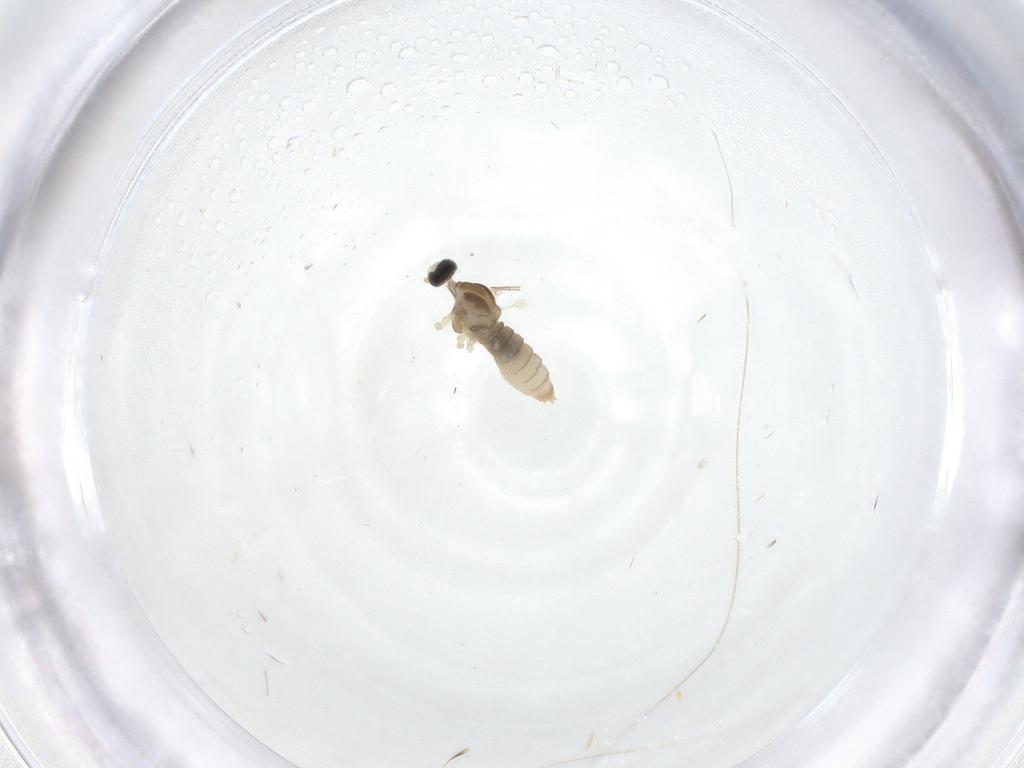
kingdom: Animalia
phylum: Arthropoda
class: Insecta
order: Diptera
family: Cecidomyiidae
